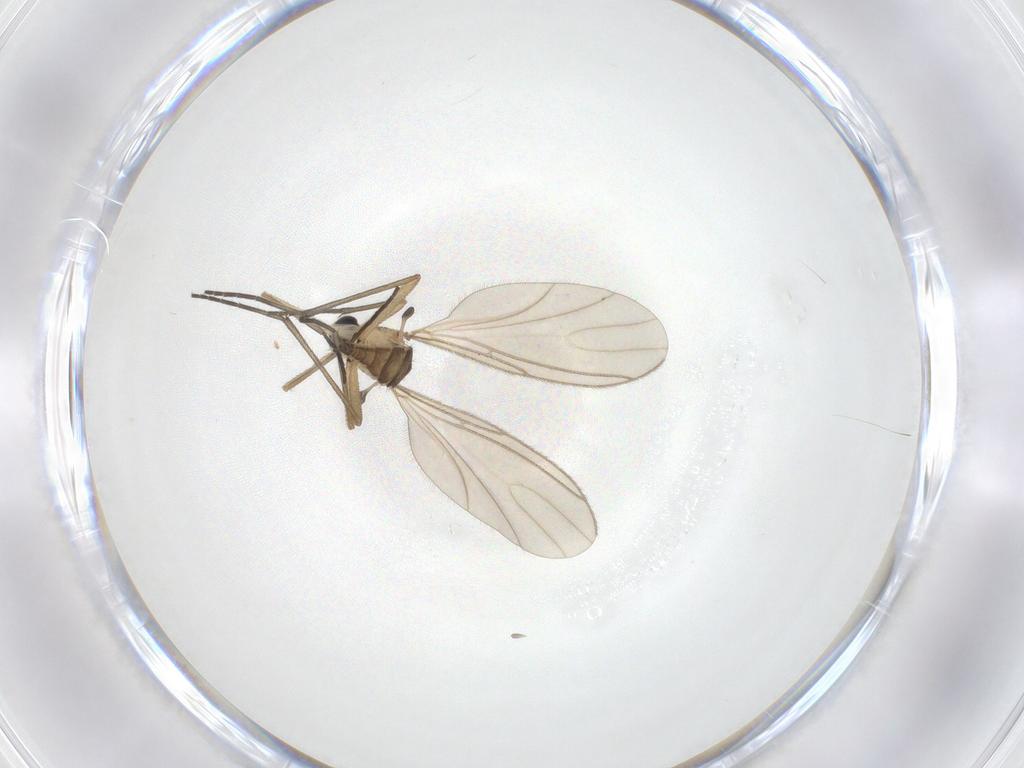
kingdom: Animalia
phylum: Arthropoda
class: Insecta
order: Diptera
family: Sciaridae
